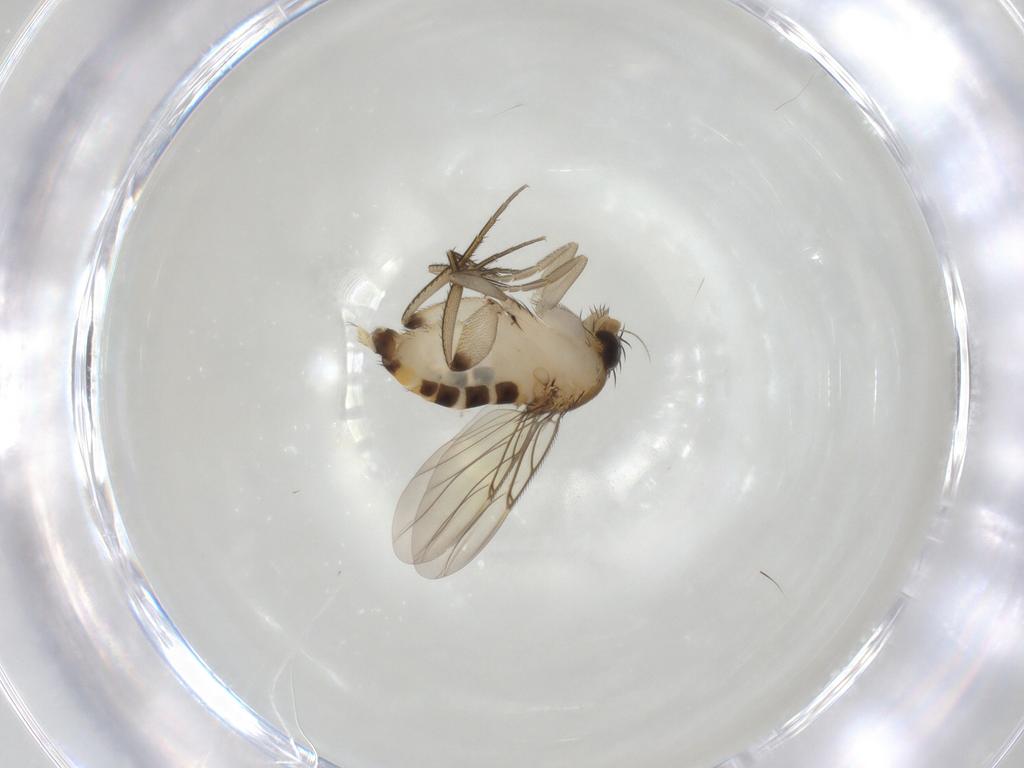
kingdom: Animalia
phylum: Arthropoda
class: Insecta
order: Diptera
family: Phoridae
